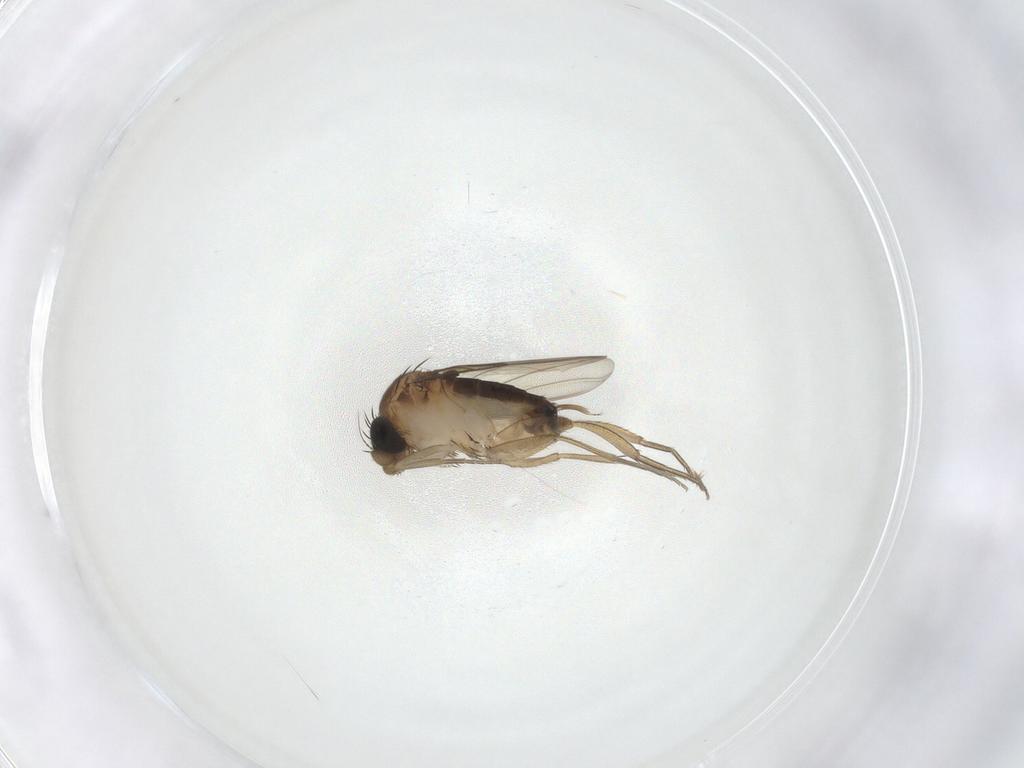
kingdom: Animalia
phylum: Arthropoda
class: Insecta
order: Diptera
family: Phoridae
